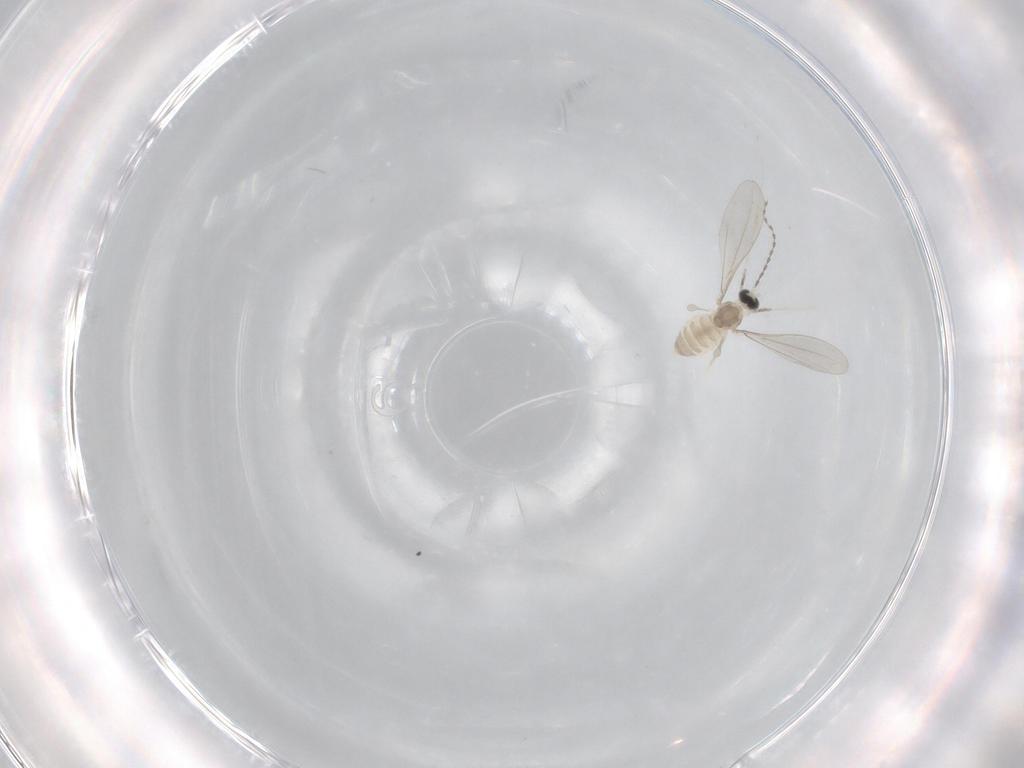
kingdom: Animalia
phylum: Arthropoda
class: Insecta
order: Diptera
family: Cecidomyiidae
